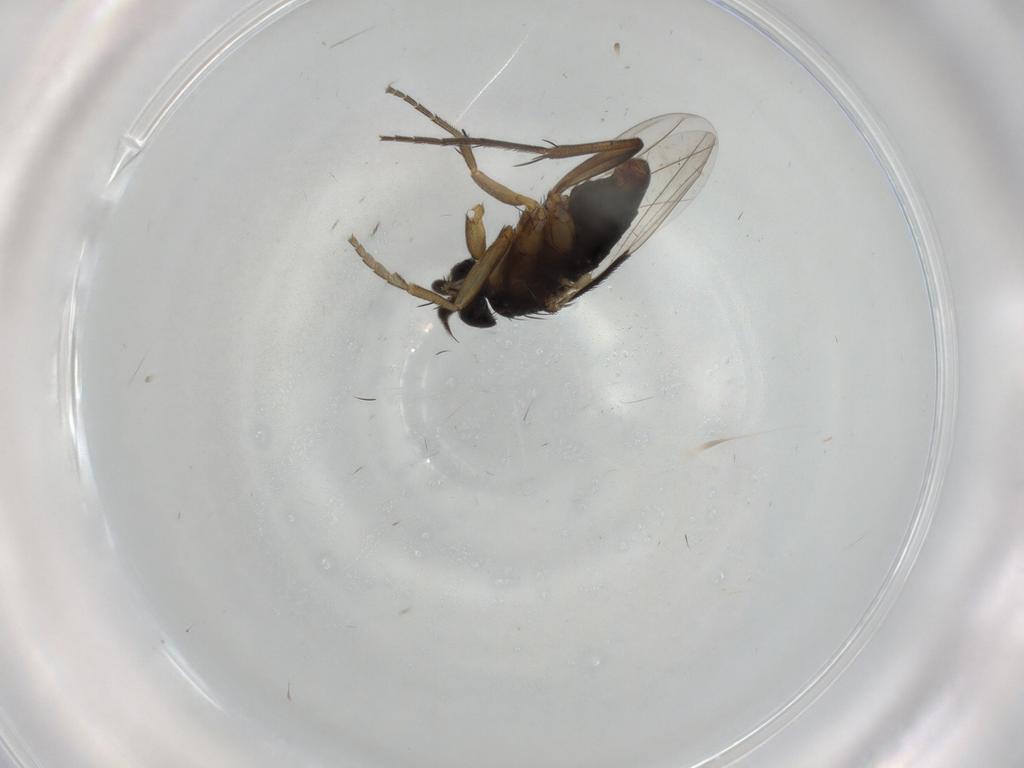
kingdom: Animalia
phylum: Arthropoda
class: Insecta
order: Diptera
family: Phoridae
